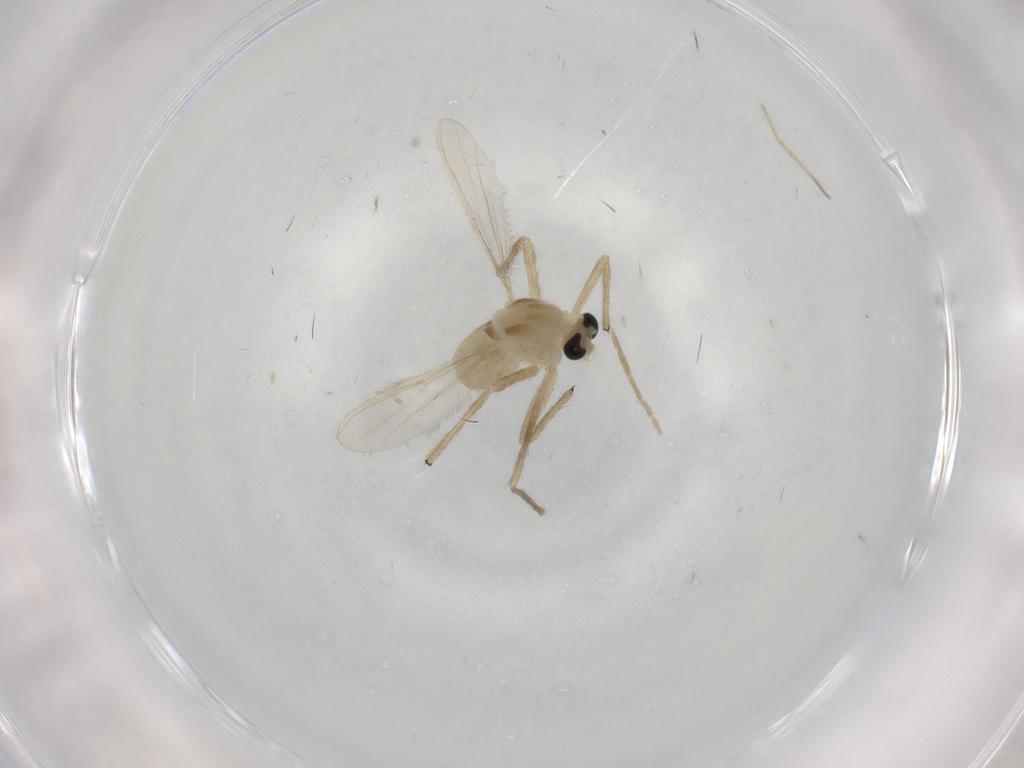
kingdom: Animalia
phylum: Arthropoda
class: Insecta
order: Diptera
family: Chironomidae
